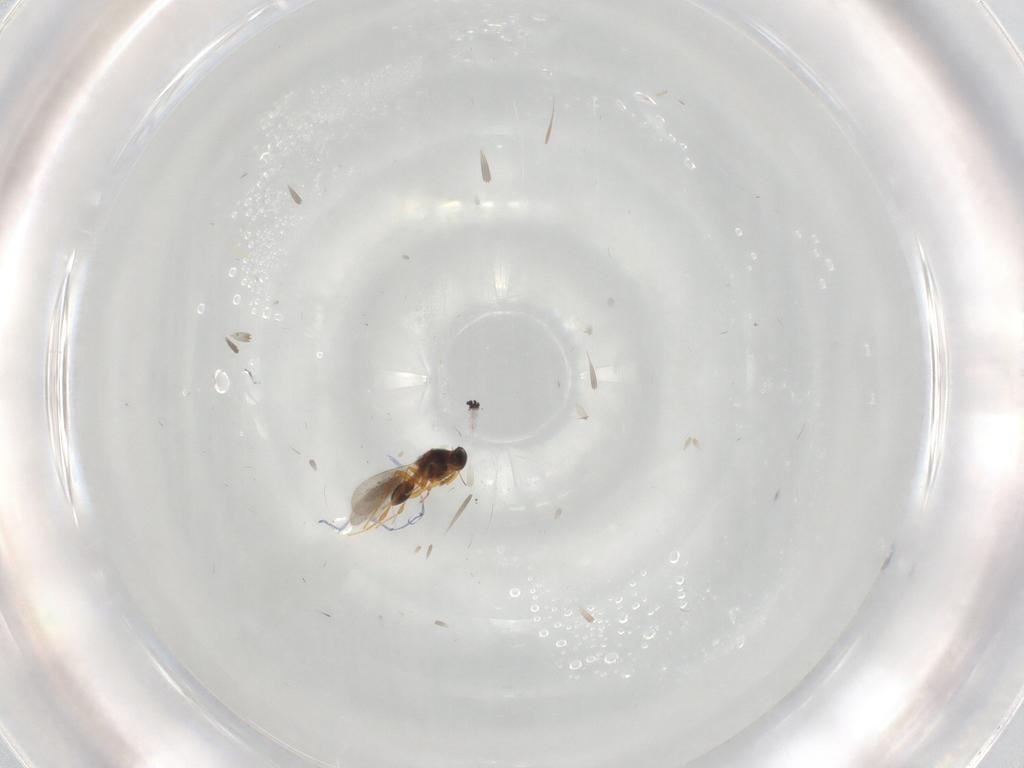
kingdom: Animalia
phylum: Arthropoda
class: Insecta
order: Hymenoptera
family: Platygastridae
